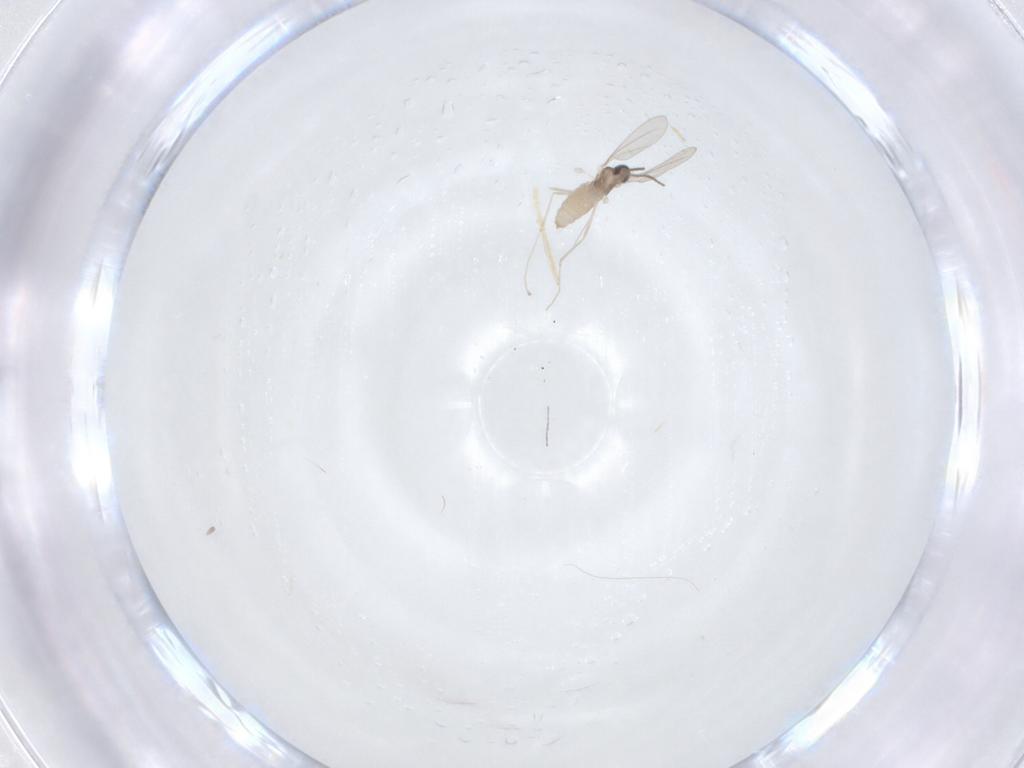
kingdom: Animalia
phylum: Arthropoda
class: Insecta
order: Diptera
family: Cecidomyiidae
